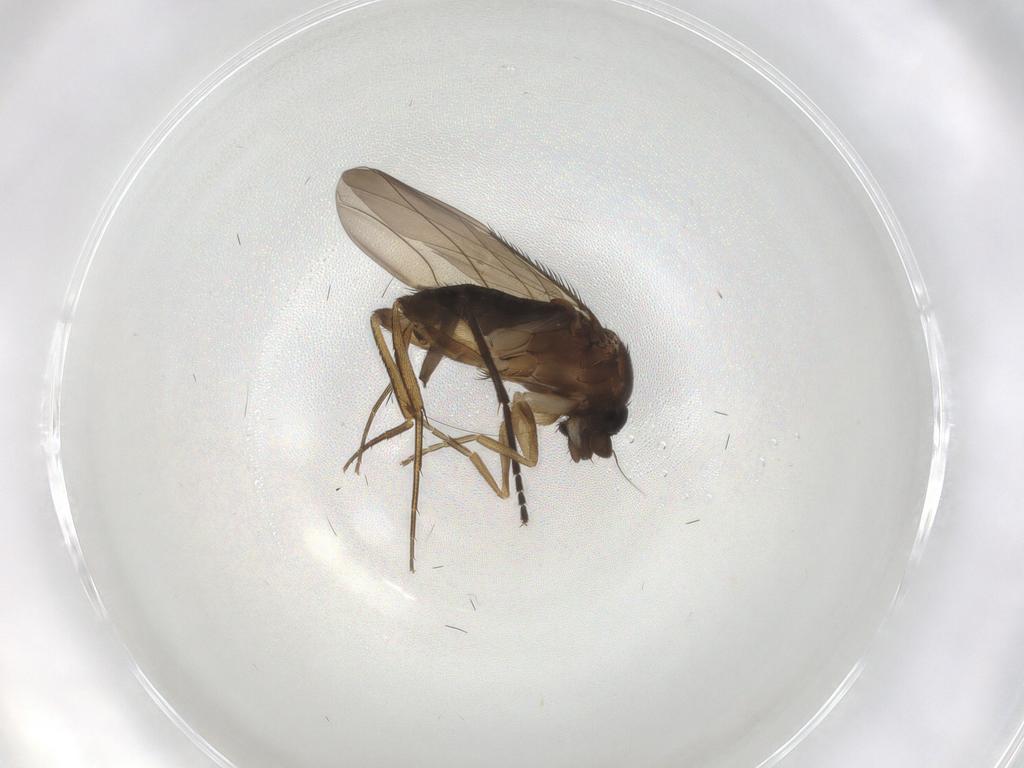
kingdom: Animalia
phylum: Arthropoda
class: Insecta
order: Diptera
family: Phoridae
